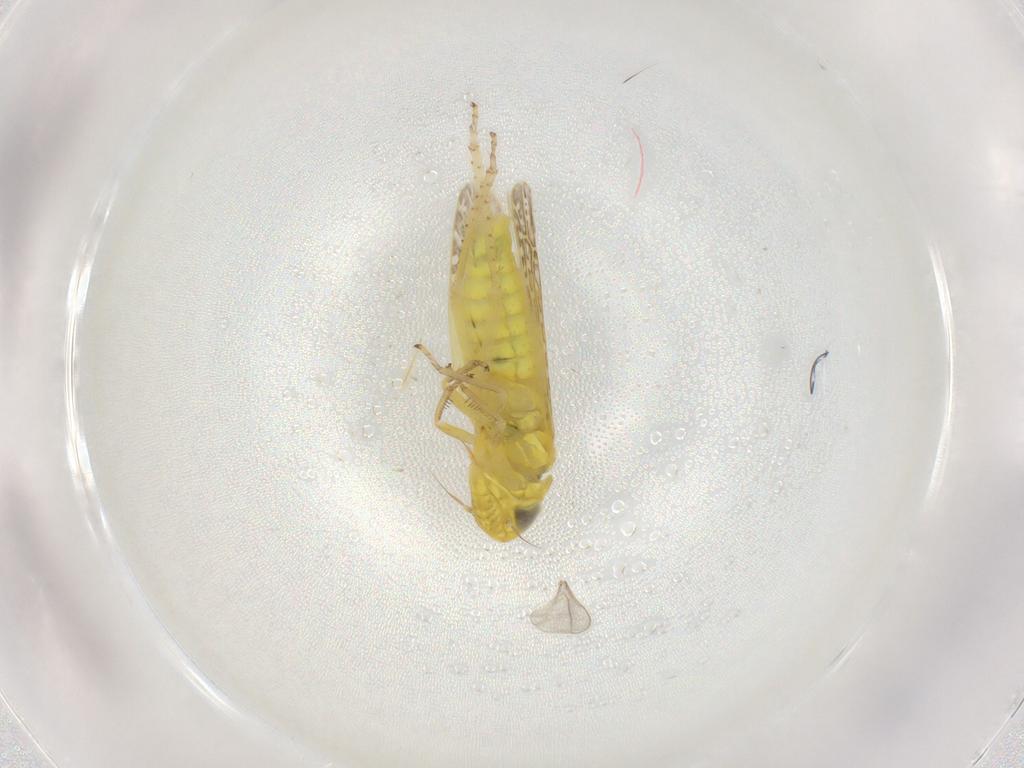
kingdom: Animalia
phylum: Arthropoda
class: Insecta
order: Hemiptera
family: Cicadellidae
